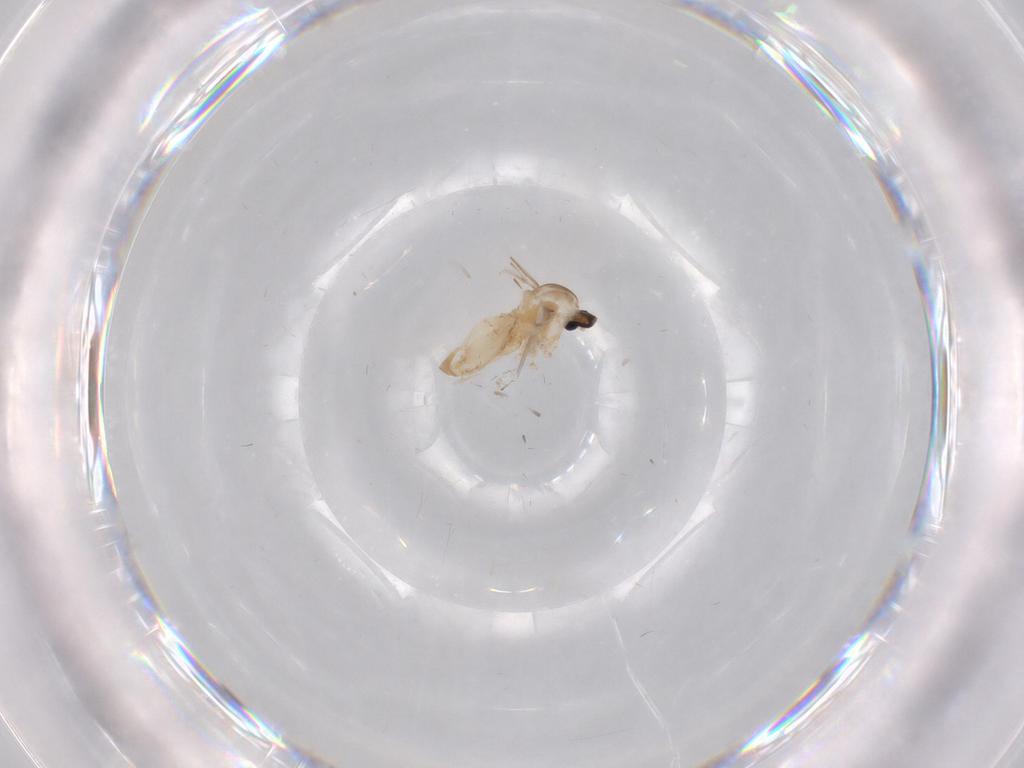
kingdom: Animalia
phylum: Arthropoda
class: Insecta
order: Diptera
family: Cecidomyiidae
